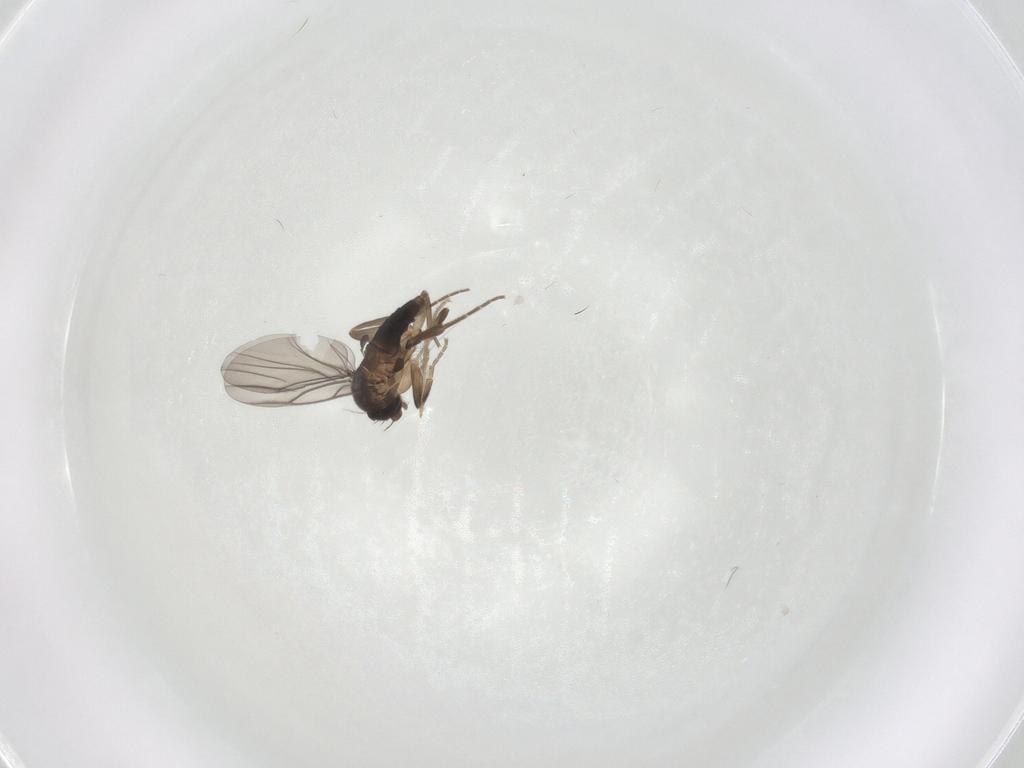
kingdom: Animalia
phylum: Arthropoda
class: Insecta
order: Diptera
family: Chironomidae
